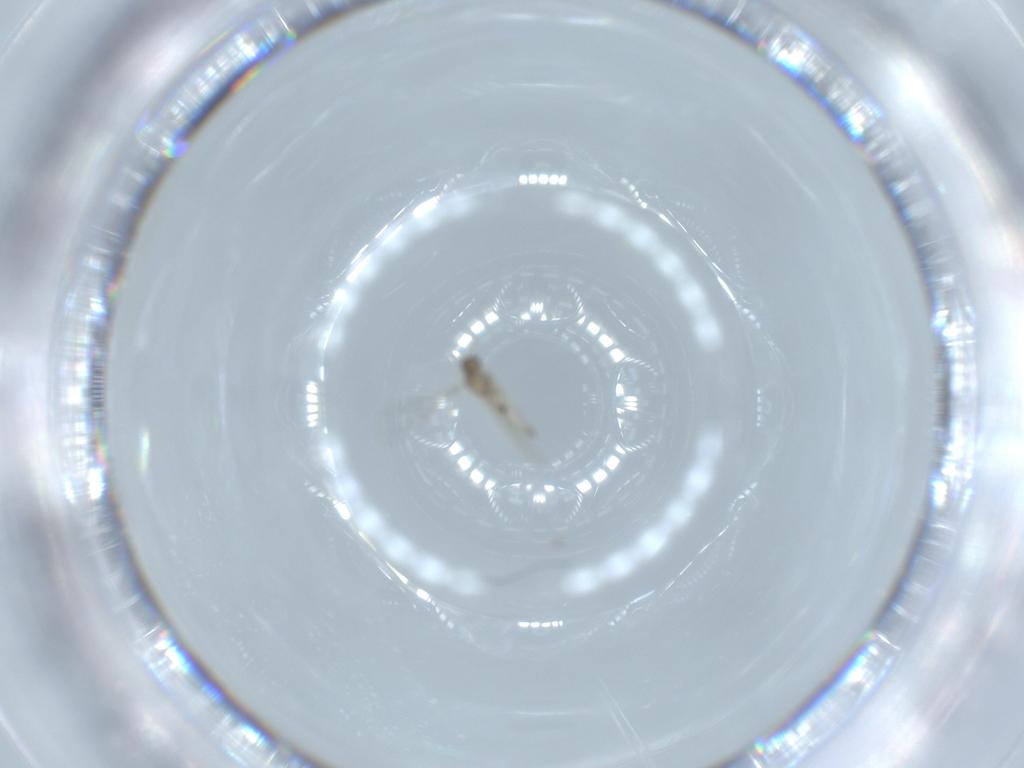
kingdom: Animalia
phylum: Arthropoda
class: Insecta
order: Diptera
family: Cecidomyiidae
